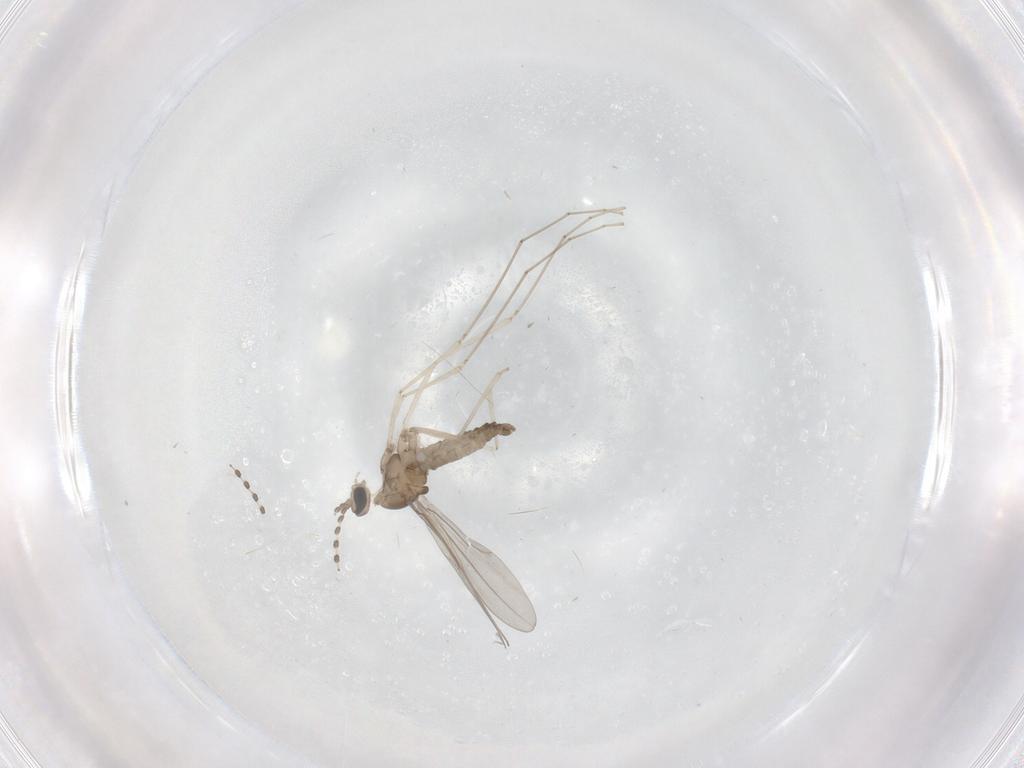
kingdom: Animalia
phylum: Arthropoda
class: Insecta
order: Diptera
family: Cecidomyiidae
